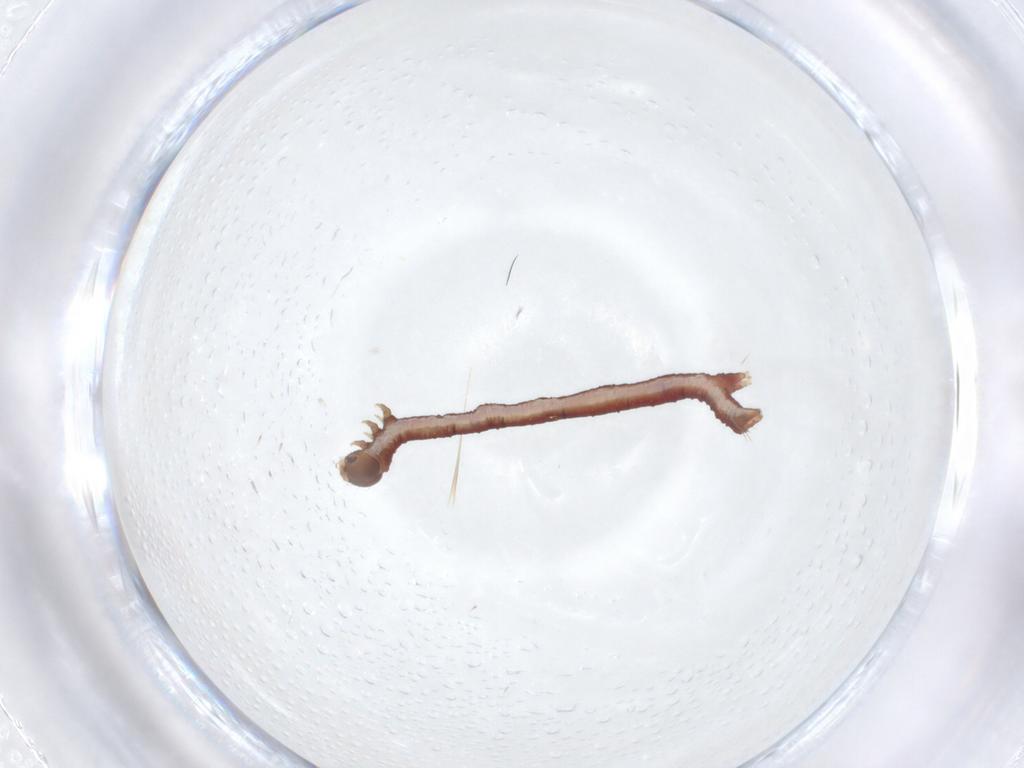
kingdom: Animalia
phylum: Arthropoda
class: Insecta
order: Lepidoptera
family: Geometridae
